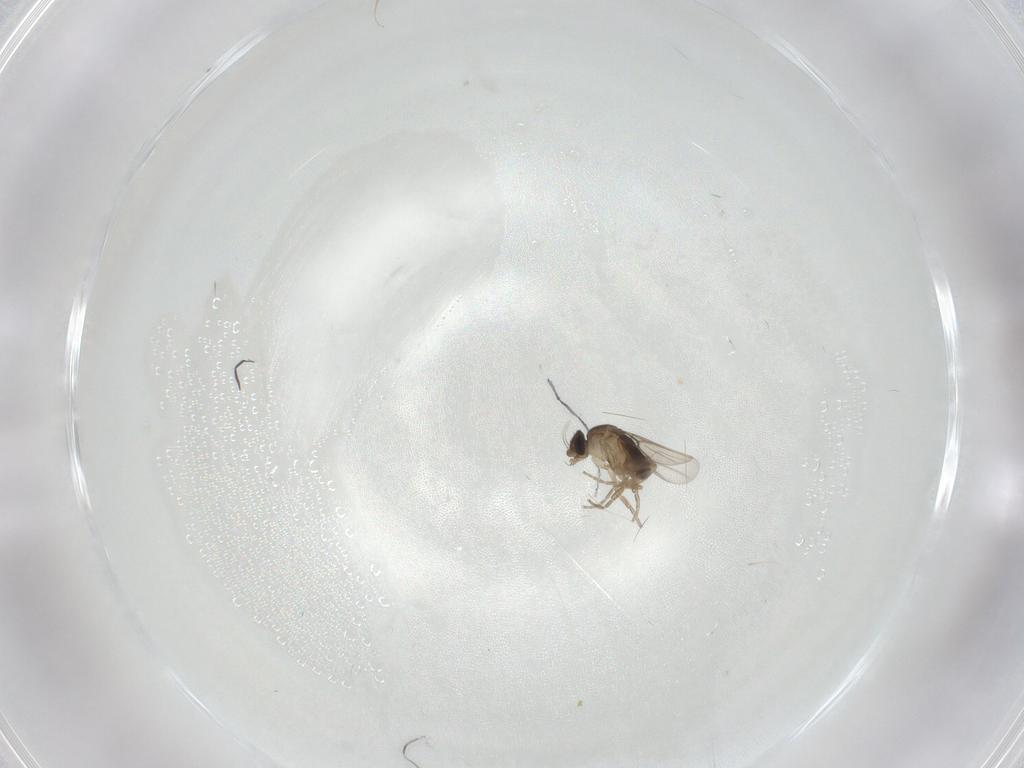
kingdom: Animalia
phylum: Arthropoda
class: Insecta
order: Diptera
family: Phoridae
